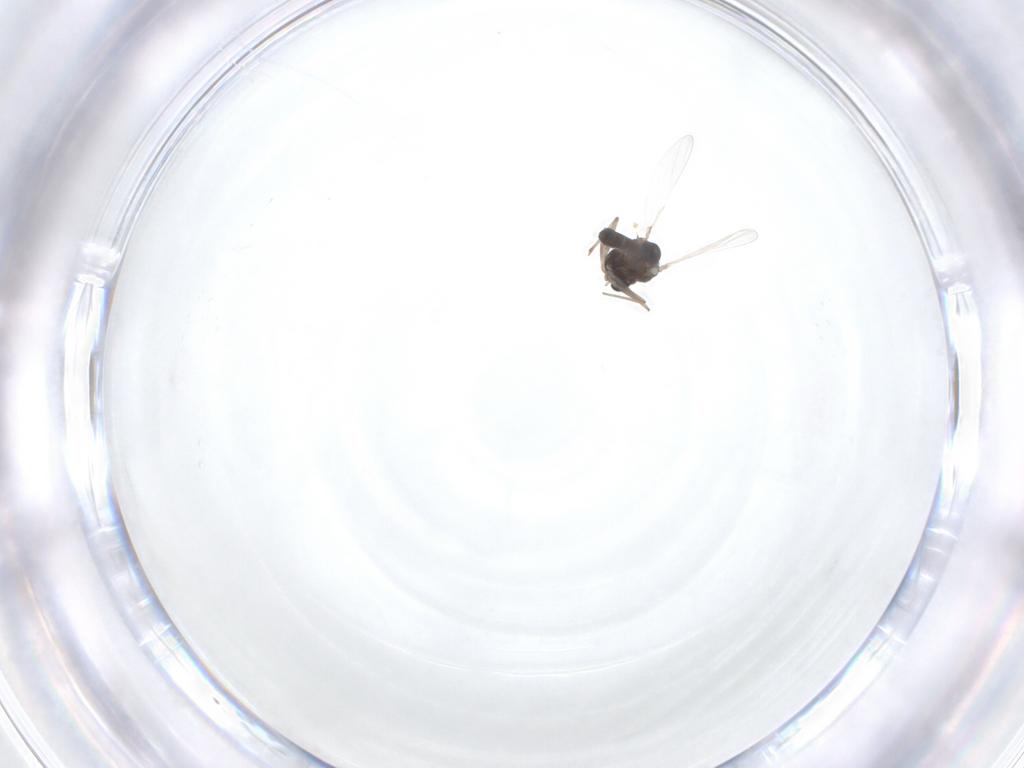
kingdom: Animalia
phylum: Arthropoda
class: Insecta
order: Diptera
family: Chironomidae
